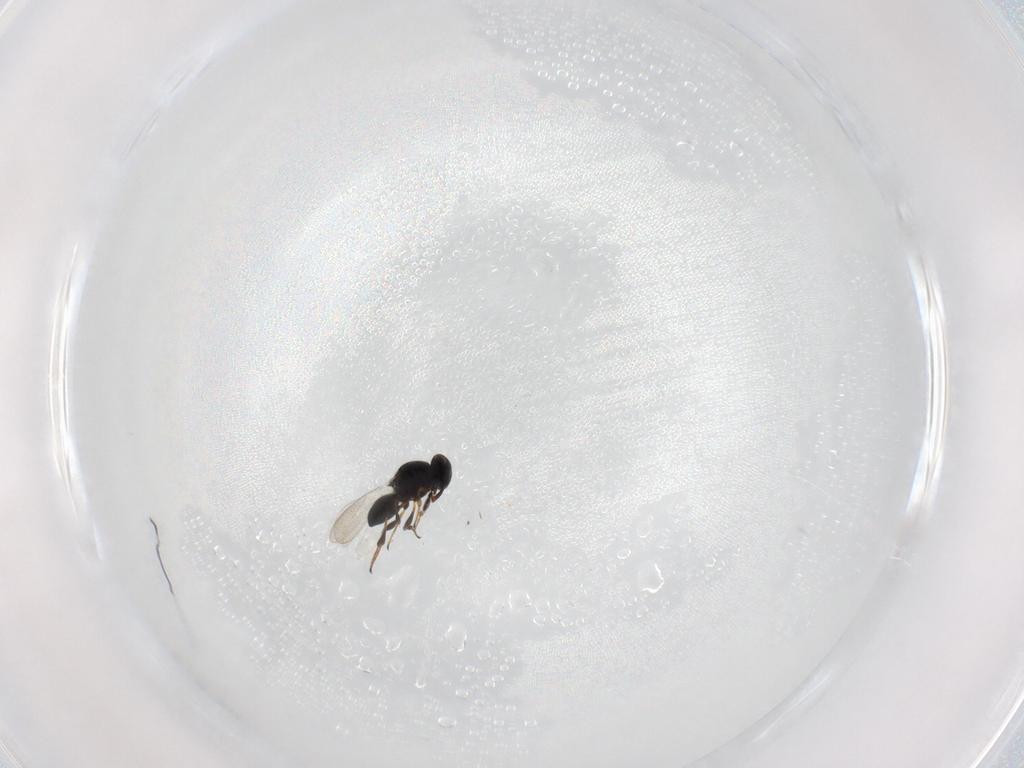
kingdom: Animalia
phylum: Arthropoda
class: Insecta
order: Hymenoptera
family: Platygastridae
